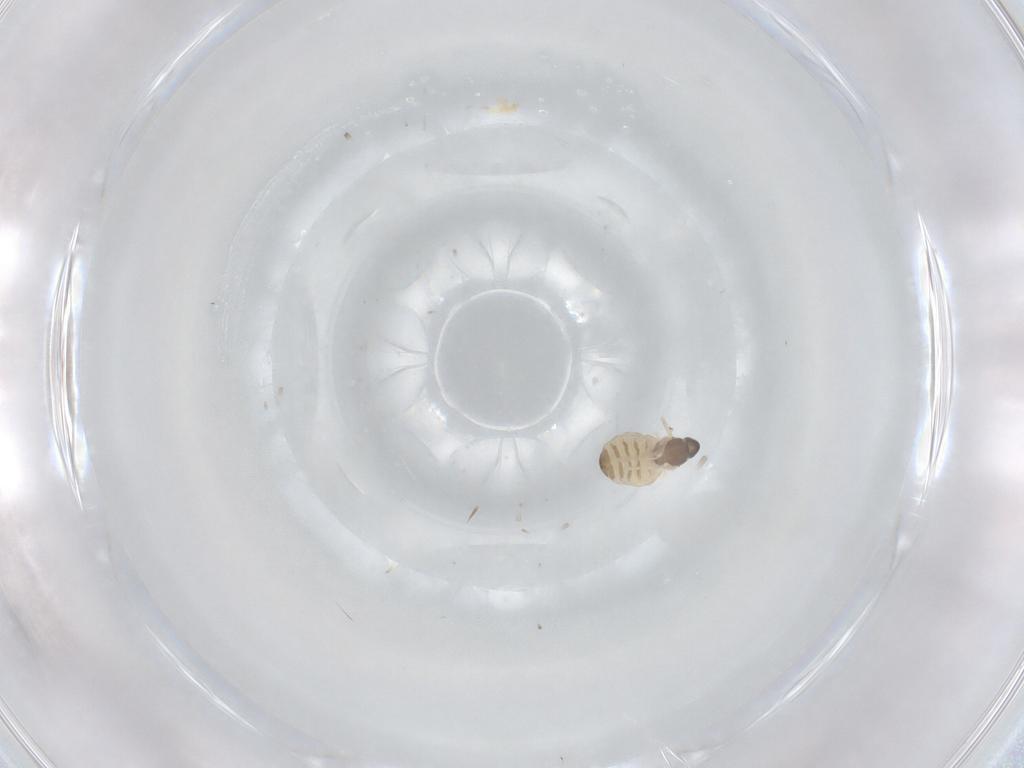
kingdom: Animalia
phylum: Arthropoda
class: Insecta
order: Diptera
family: Cecidomyiidae
